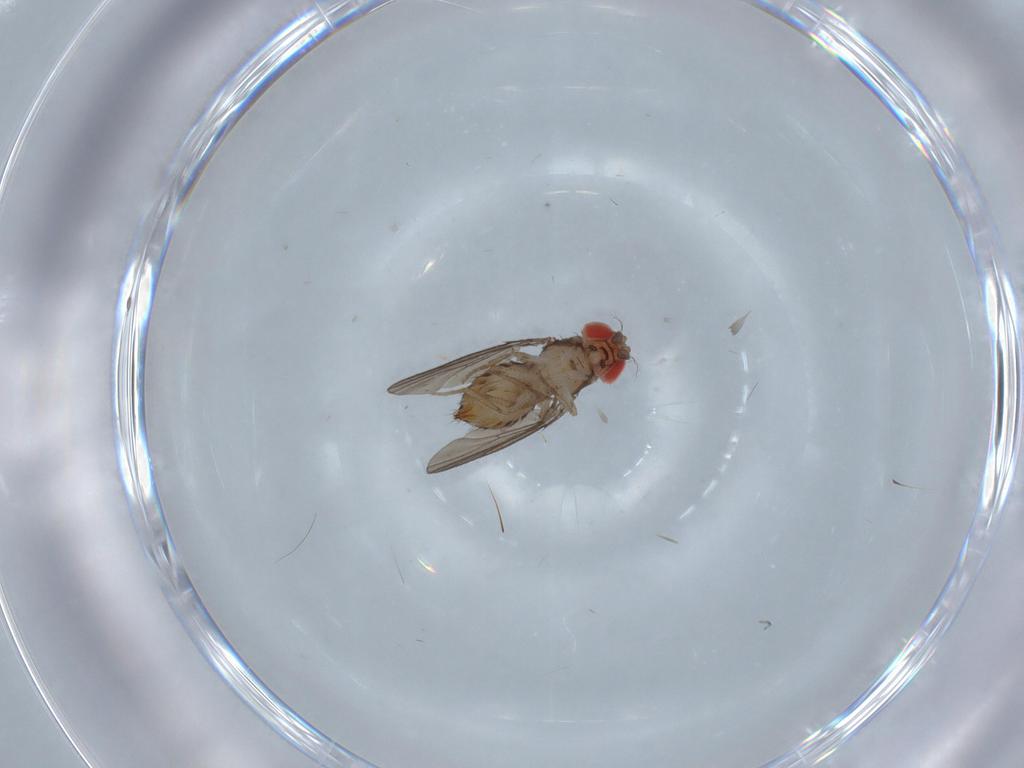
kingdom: Animalia
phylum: Arthropoda
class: Insecta
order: Diptera
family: Drosophilidae
